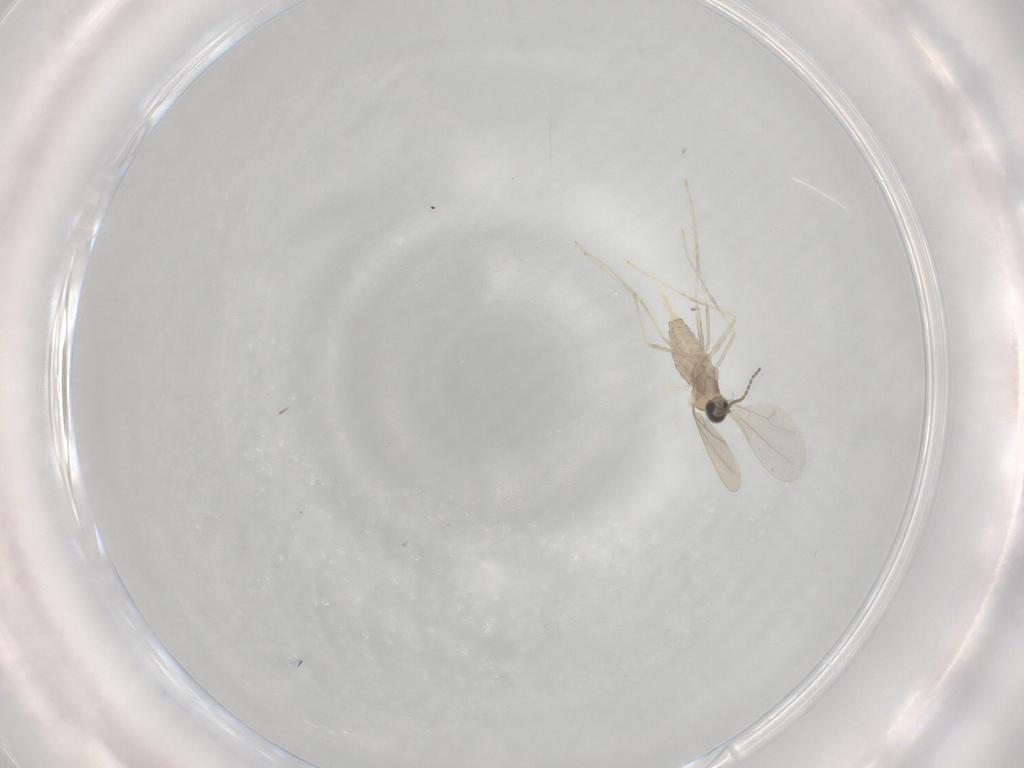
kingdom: Animalia
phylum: Arthropoda
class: Insecta
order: Diptera
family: Cecidomyiidae
